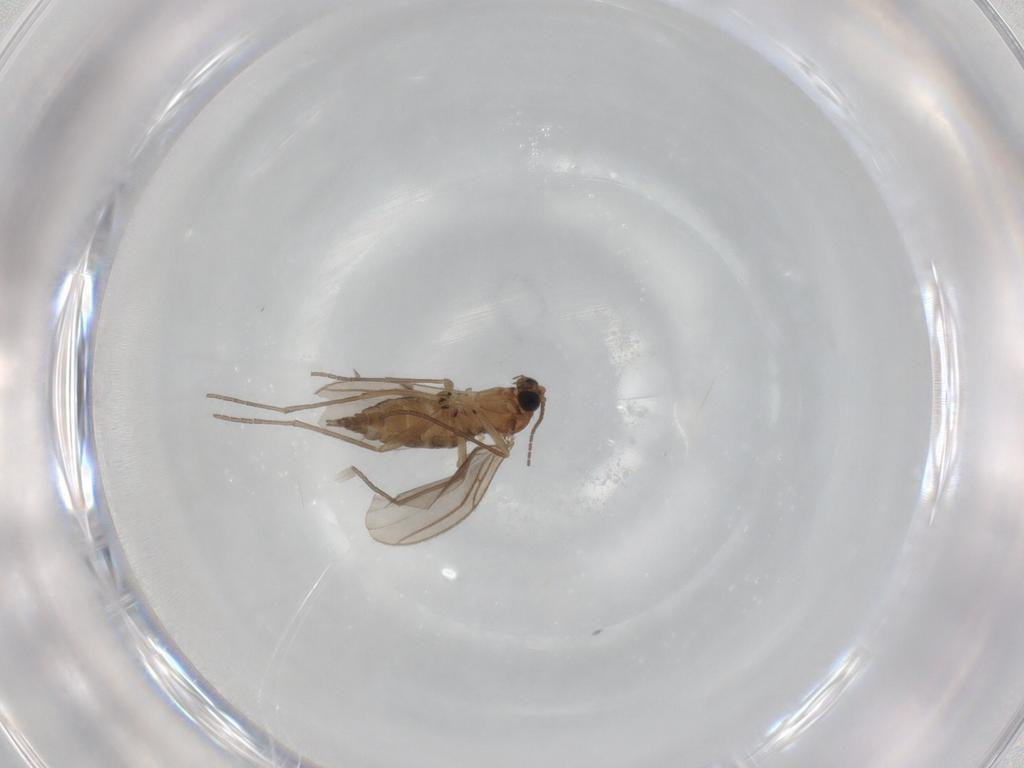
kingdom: Animalia
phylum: Arthropoda
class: Insecta
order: Diptera
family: Sciaridae
